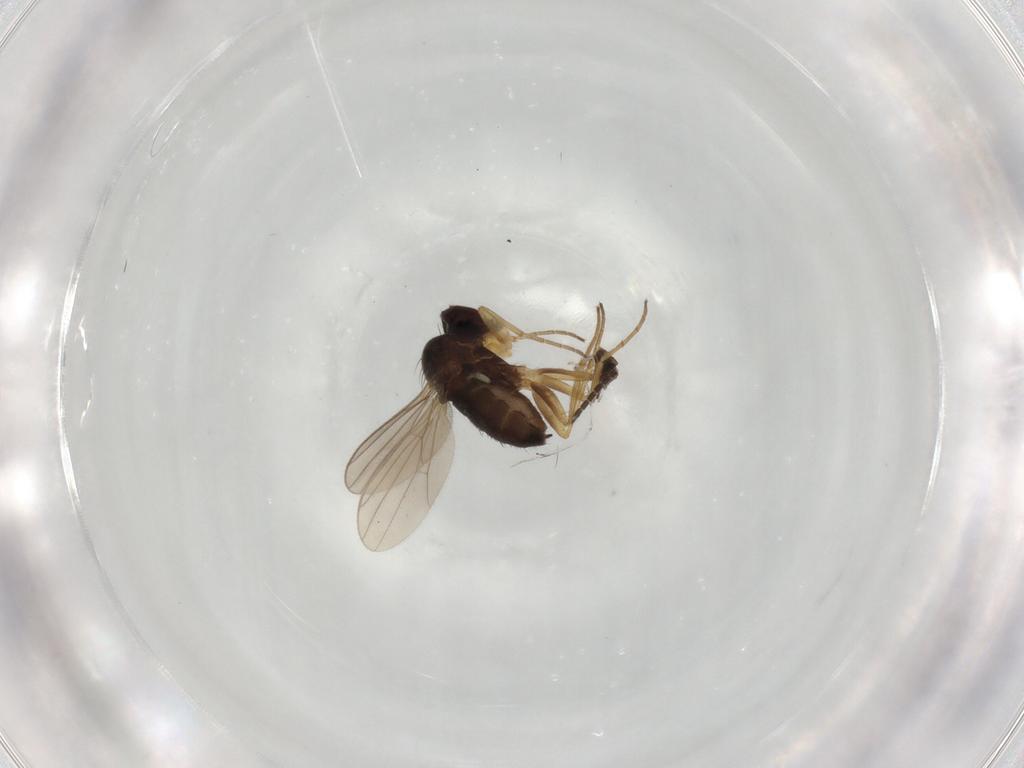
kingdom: Animalia
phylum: Arthropoda
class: Insecta
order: Diptera
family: Dolichopodidae
